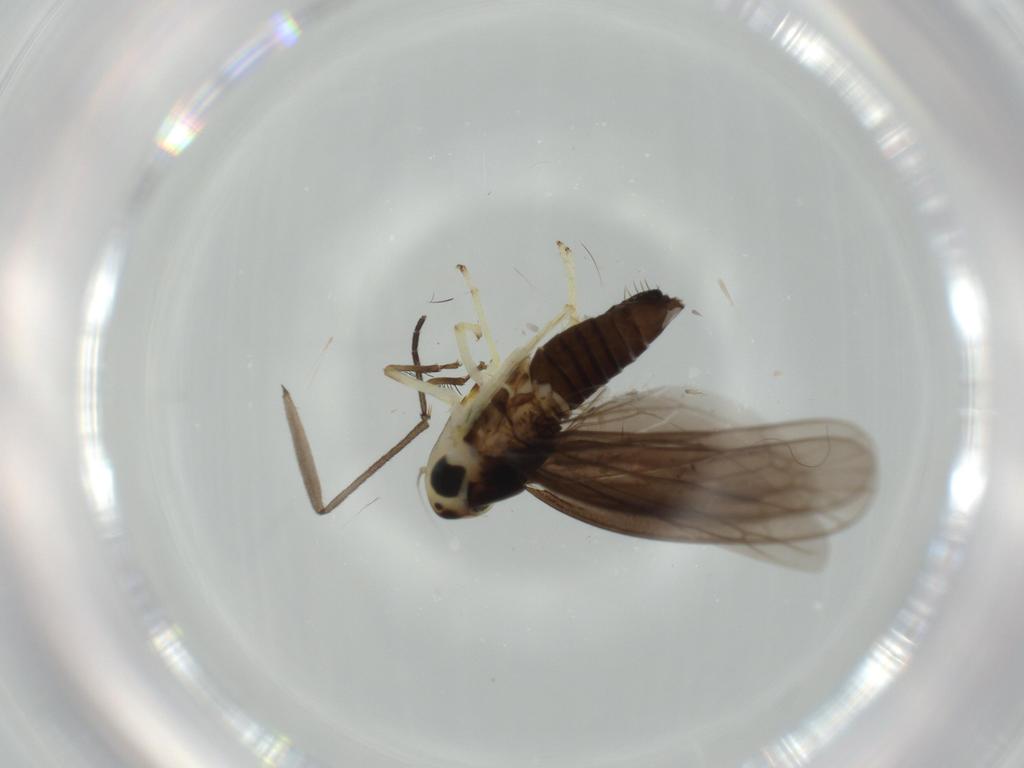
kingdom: Animalia
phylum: Arthropoda
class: Insecta
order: Hemiptera
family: Cicadellidae
